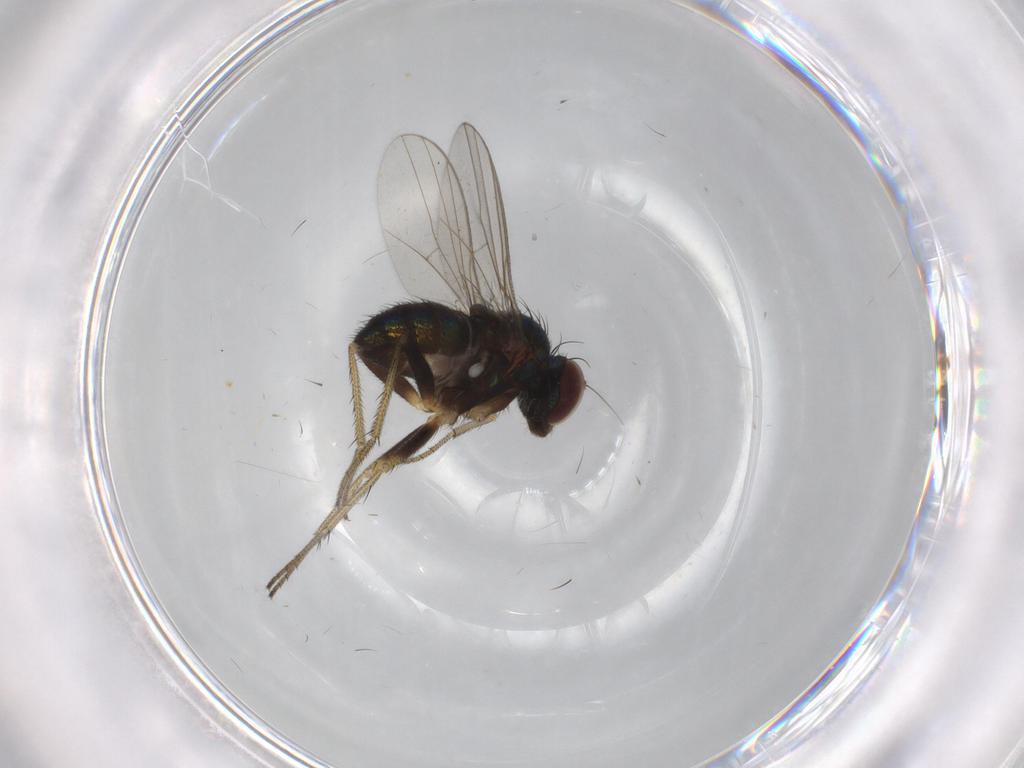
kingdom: Animalia
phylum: Arthropoda
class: Insecta
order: Diptera
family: Dolichopodidae
